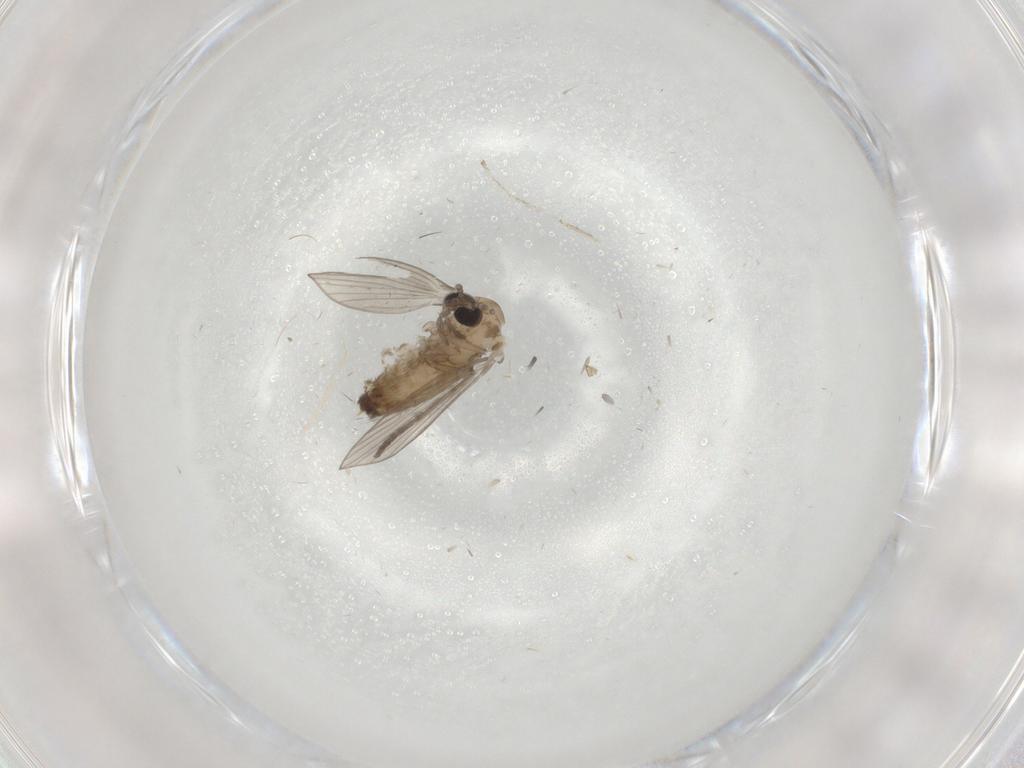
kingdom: Animalia
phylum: Arthropoda
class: Insecta
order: Diptera
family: Psychodidae
